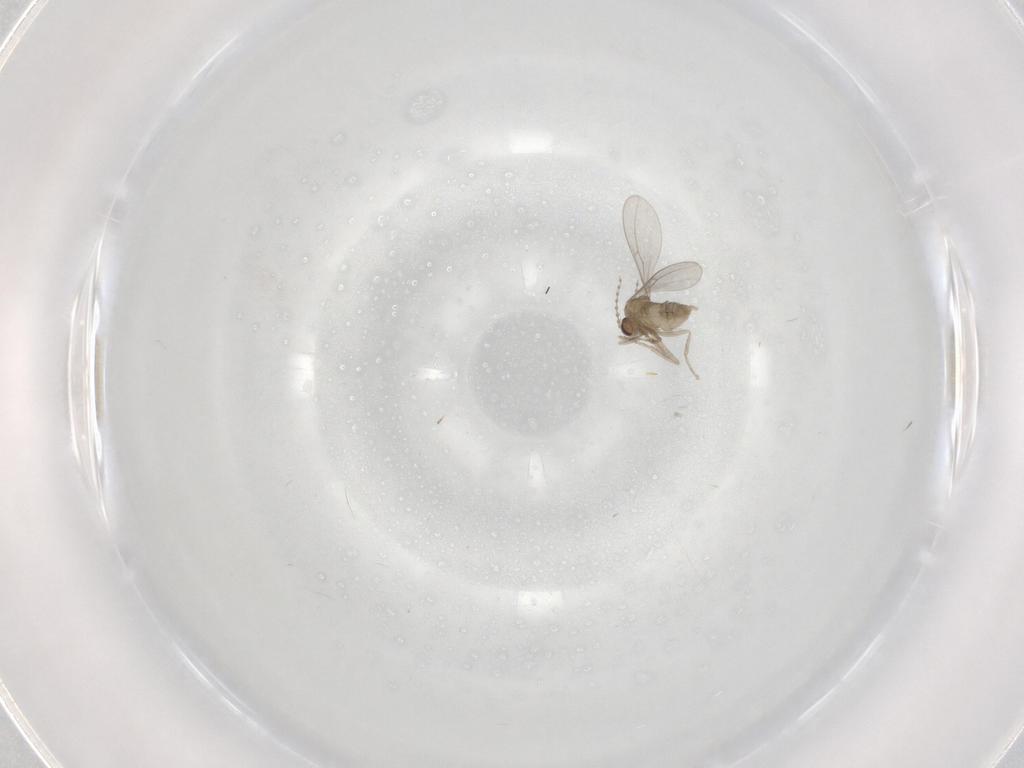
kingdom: Animalia
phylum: Arthropoda
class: Insecta
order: Diptera
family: Cecidomyiidae
